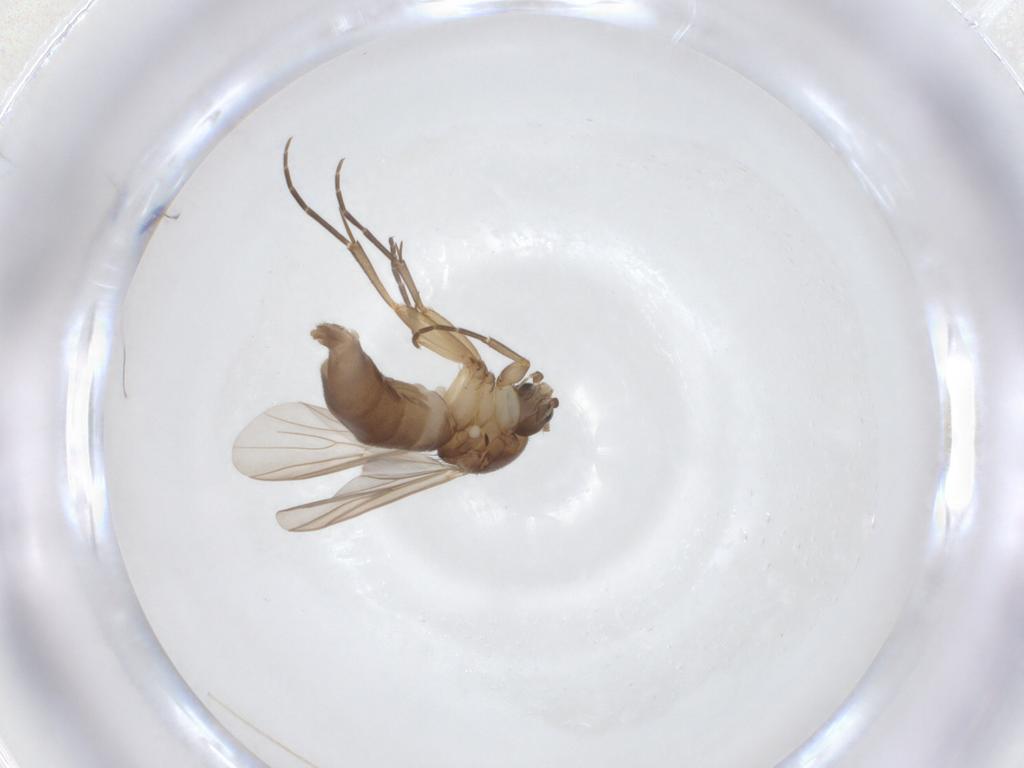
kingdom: Animalia
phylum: Arthropoda
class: Insecta
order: Diptera
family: Mycetophilidae
